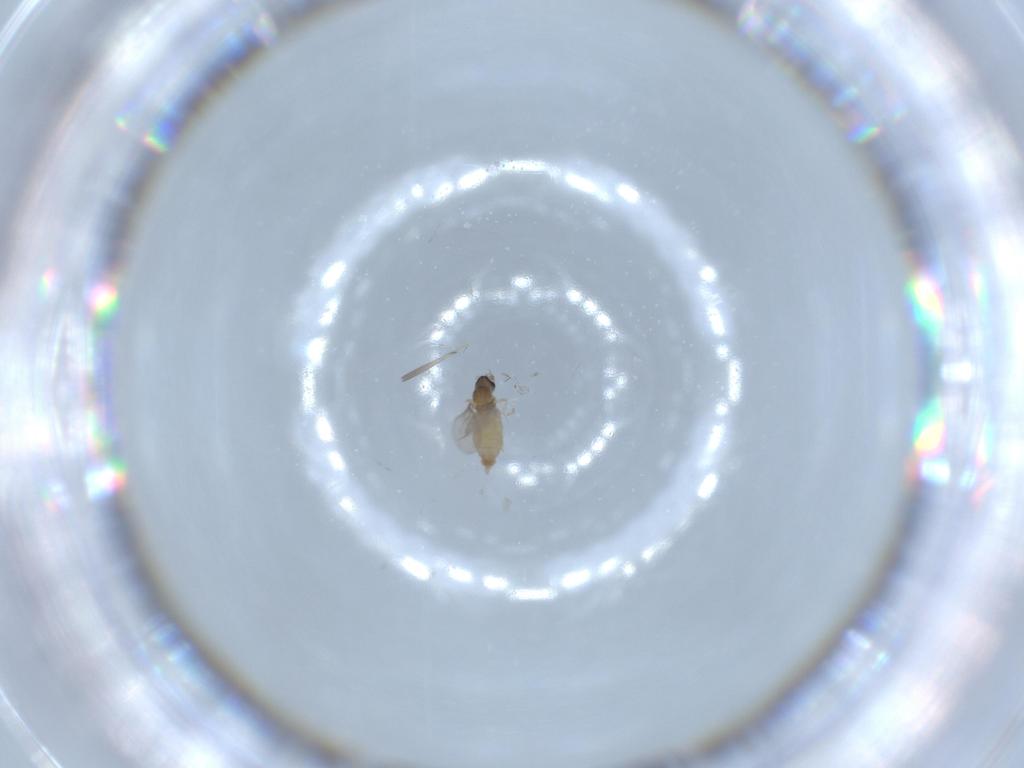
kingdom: Animalia
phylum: Arthropoda
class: Insecta
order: Diptera
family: Cecidomyiidae
